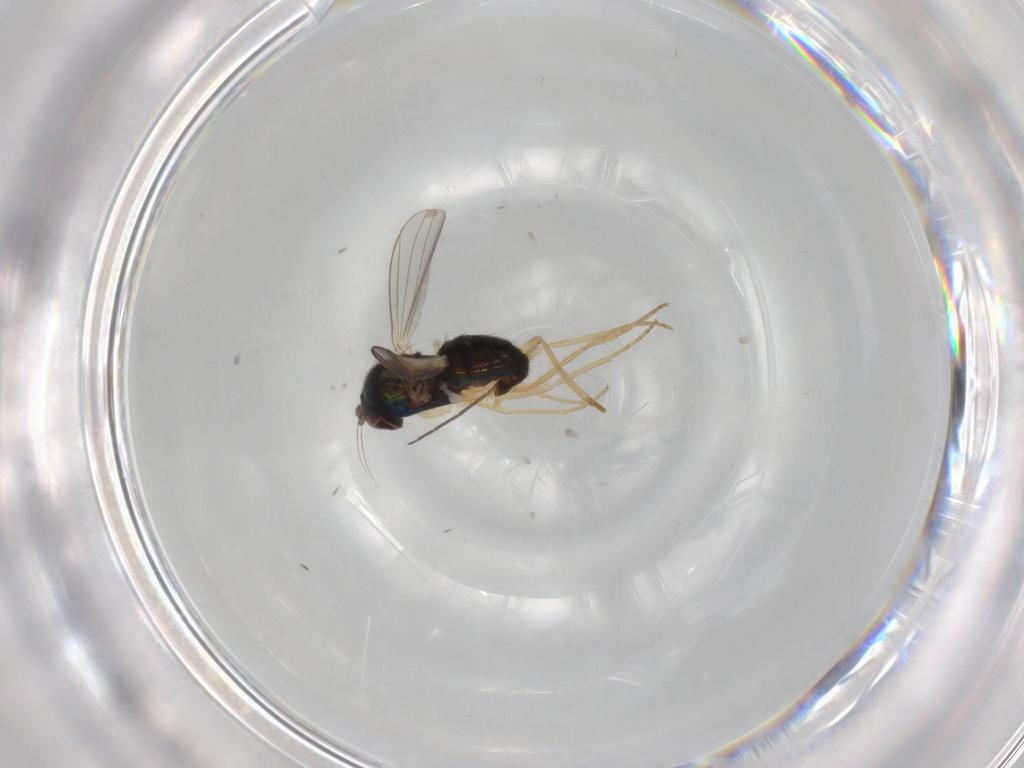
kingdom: Animalia
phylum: Arthropoda
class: Insecta
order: Diptera
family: Dolichopodidae
